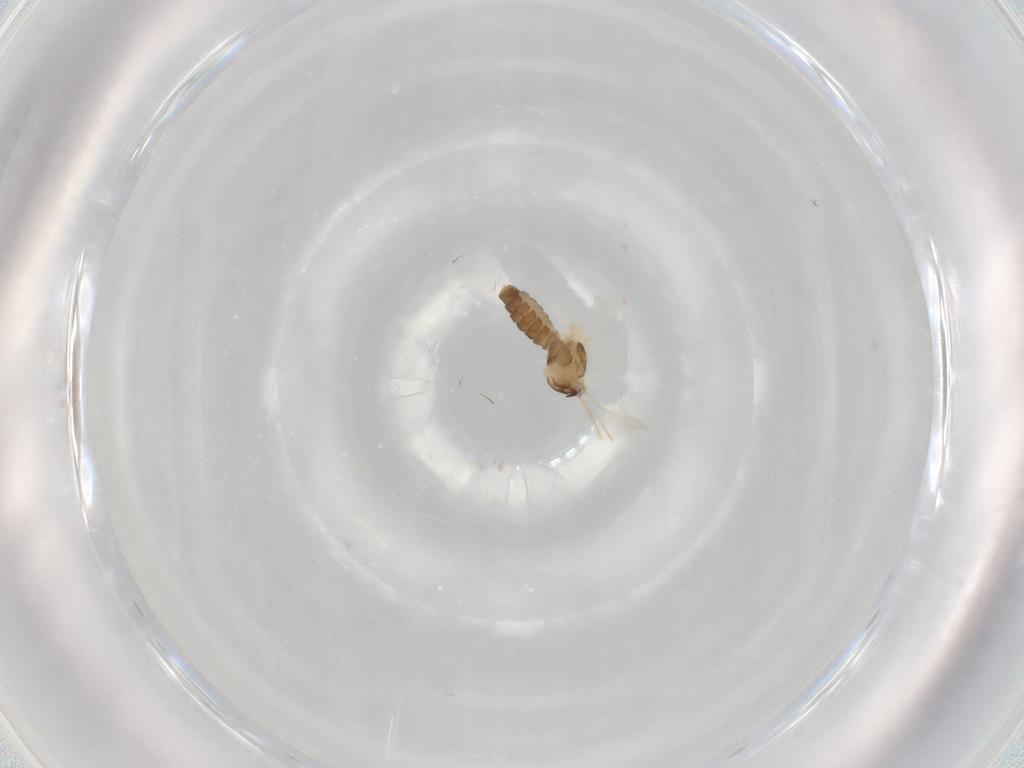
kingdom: Animalia
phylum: Arthropoda
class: Insecta
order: Diptera
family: Cecidomyiidae
